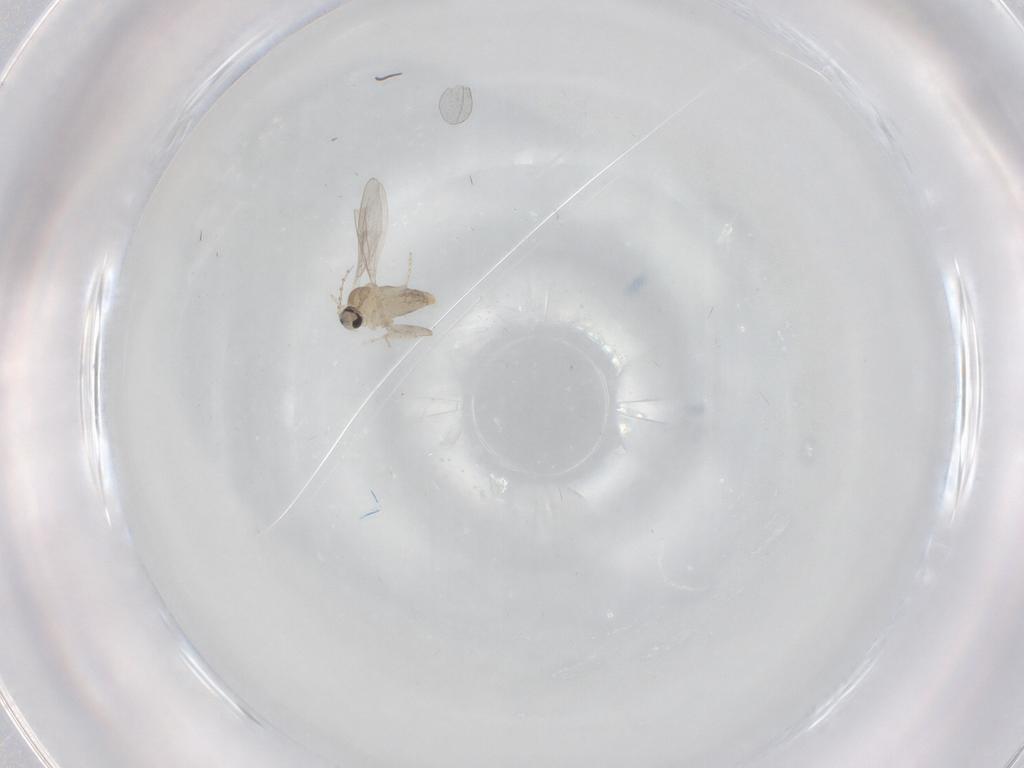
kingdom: Animalia
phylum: Arthropoda
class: Insecta
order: Diptera
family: Cecidomyiidae
